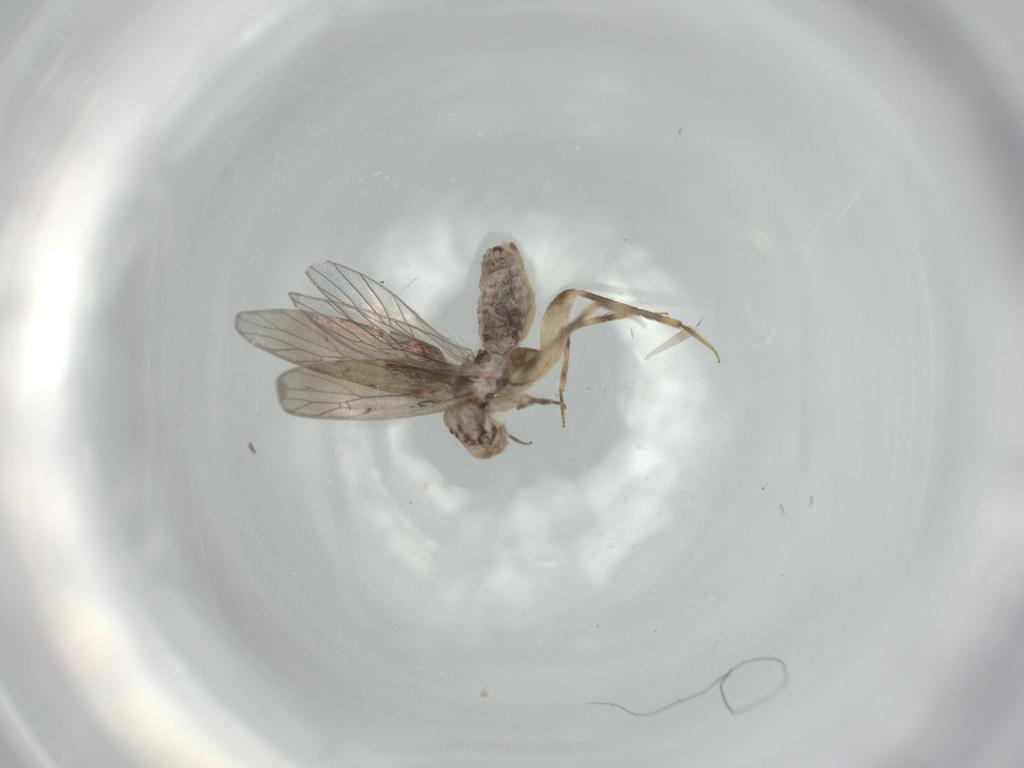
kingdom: Animalia
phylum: Arthropoda
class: Insecta
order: Psocodea
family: Lepidopsocidae
